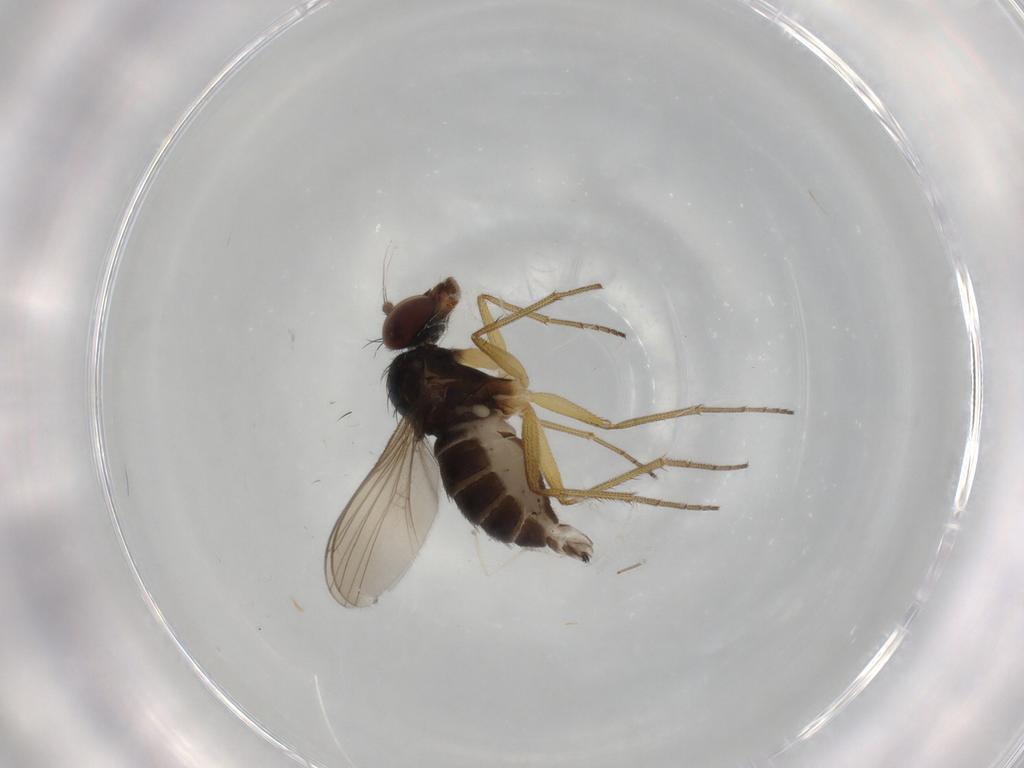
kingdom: Animalia
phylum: Arthropoda
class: Insecta
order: Diptera
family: Dolichopodidae
